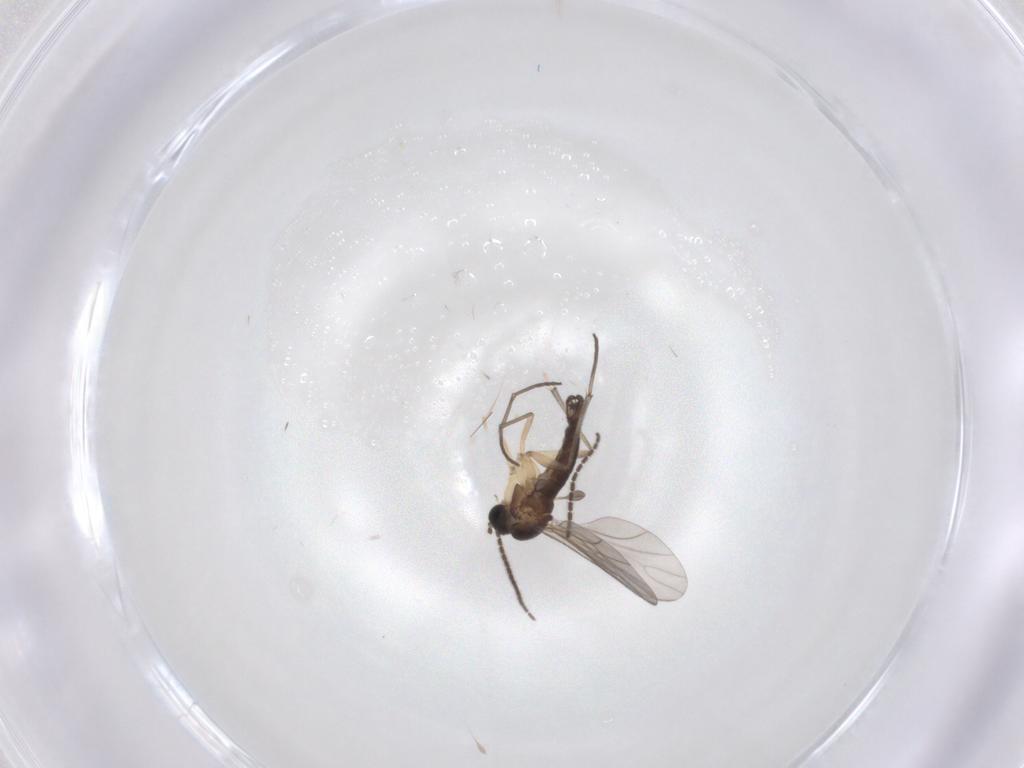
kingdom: Animalia
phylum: Arthropoda
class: Insecta
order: Diptera
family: Sciaridae
